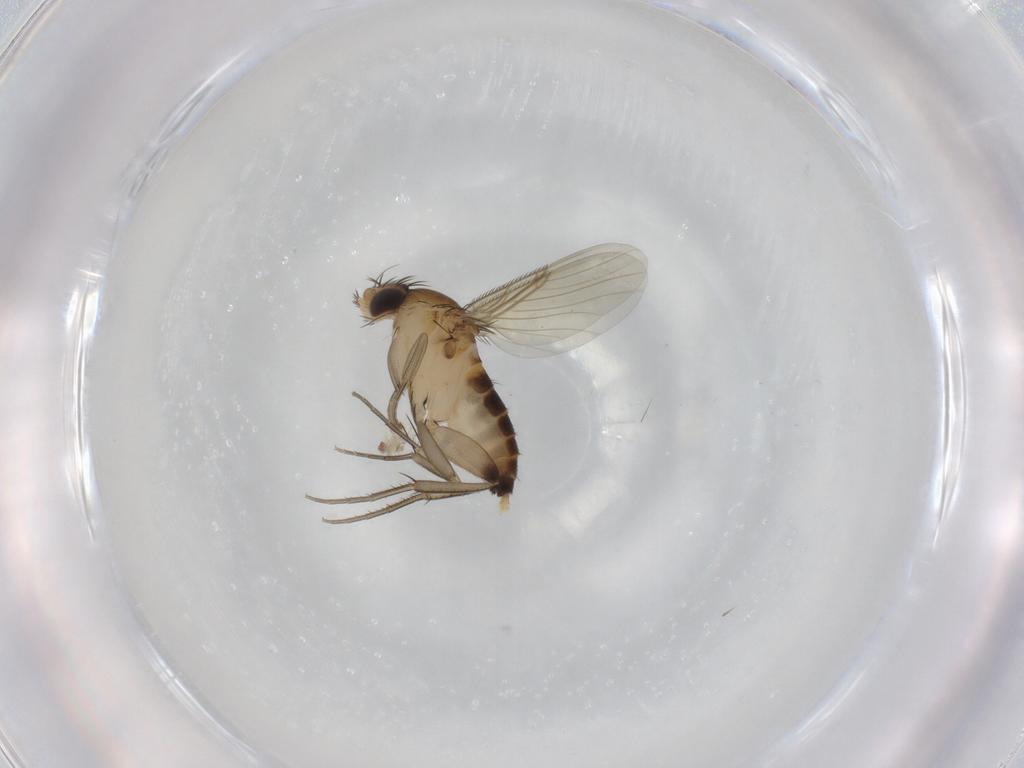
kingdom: Animalia
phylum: Arthropoda
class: Insecta
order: Diptera
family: Phoridae
